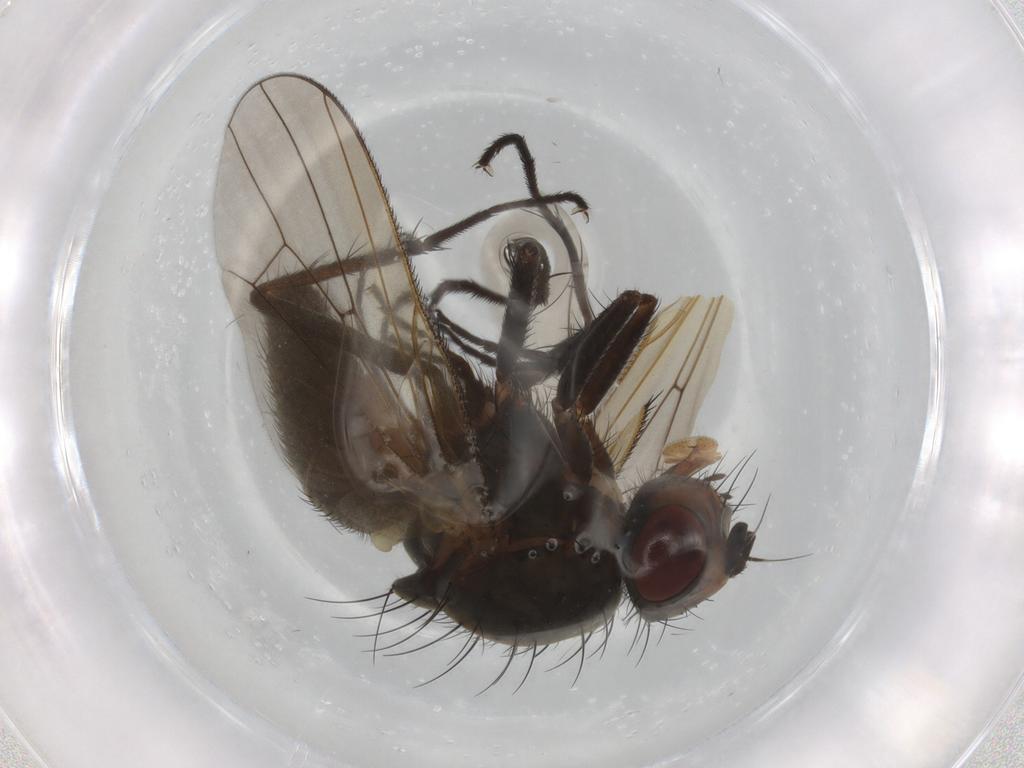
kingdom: Animalia
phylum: Arthropoda
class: Insecta
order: Diptera
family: Anthomyiidae
